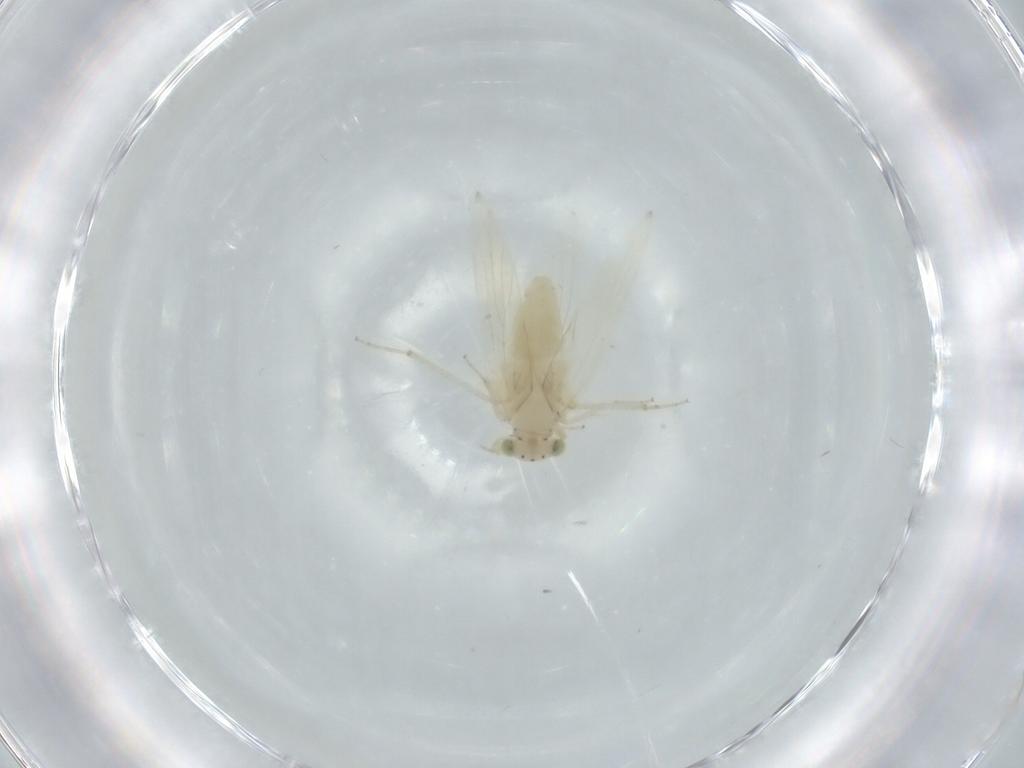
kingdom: Animalia
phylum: Arthropoda
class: Insecta
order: Psocodea
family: Lepidopsocidae
